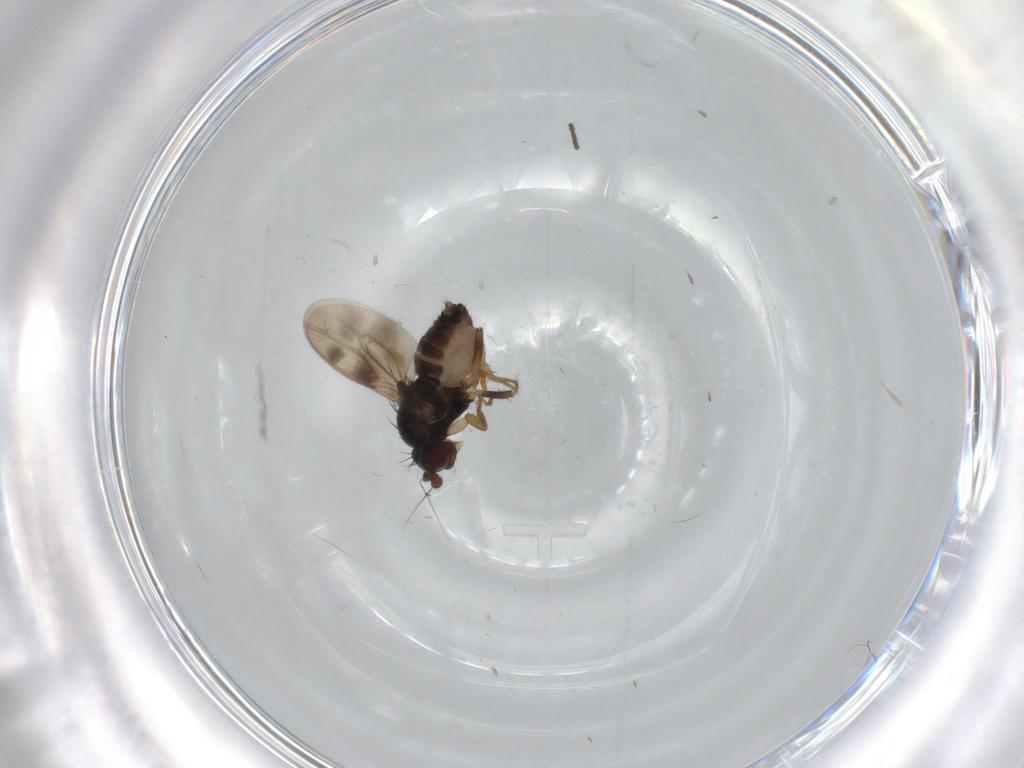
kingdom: Animalia
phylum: Arthropoda
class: Insecta
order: Diptera
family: Sphaeroceridae
